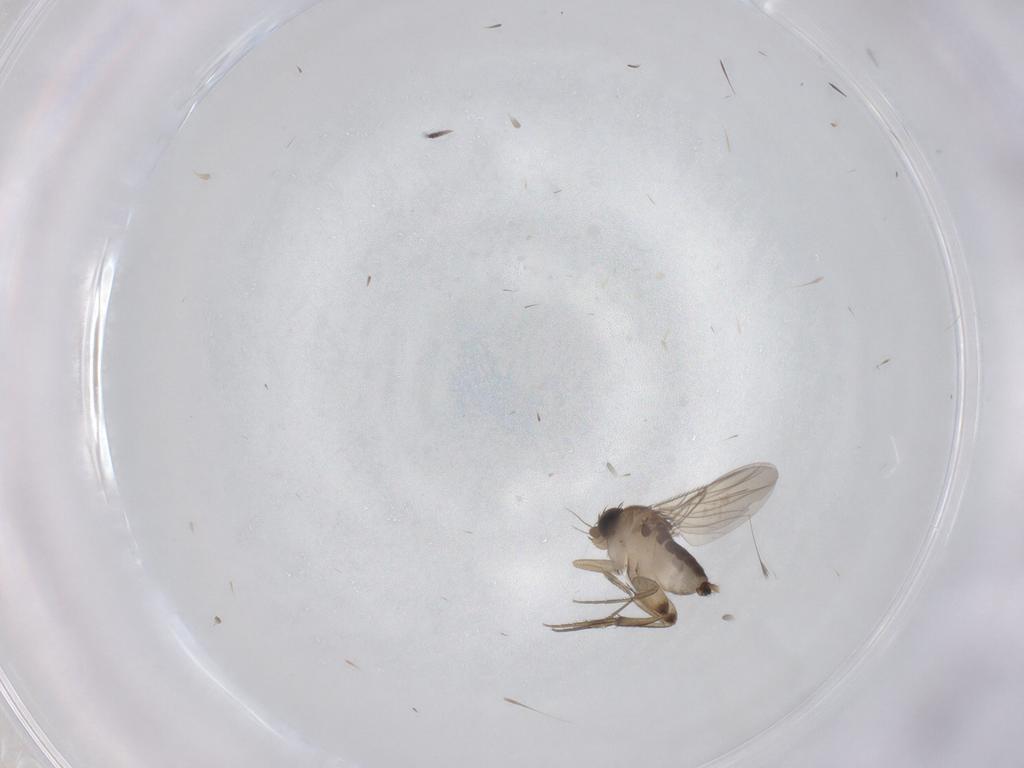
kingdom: Animalia
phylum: Arthropoda
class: Insecta
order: Diptera
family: Phoridae
